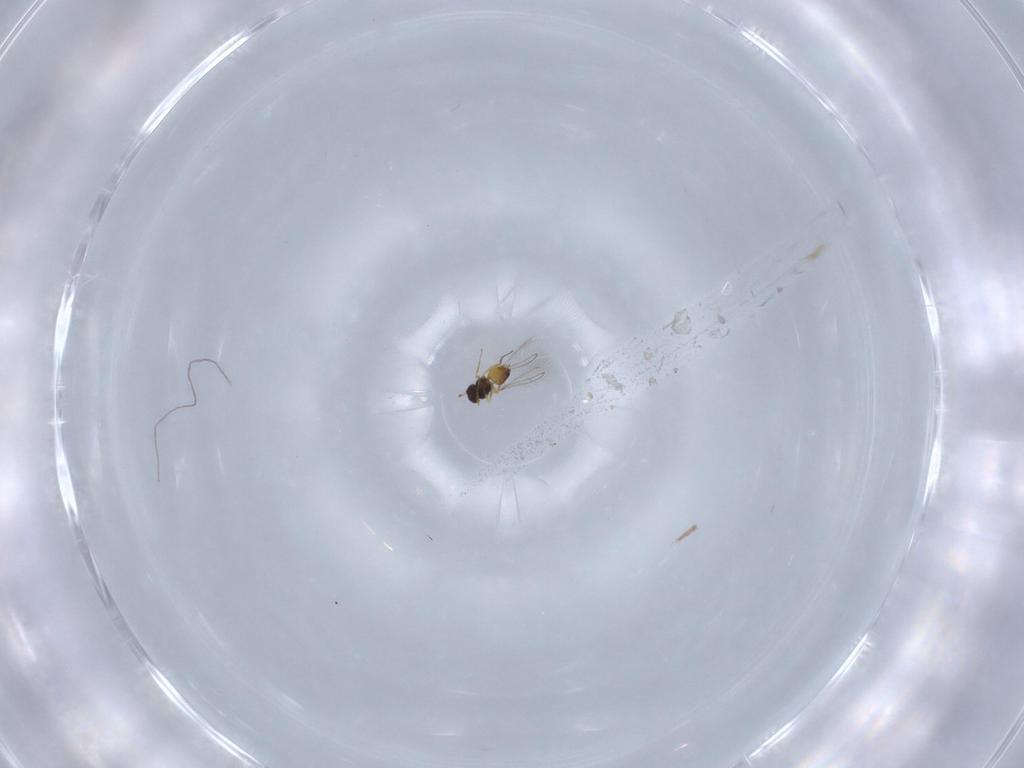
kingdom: Animalia
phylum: Arthropoda
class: Insecta
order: Hymenoptera
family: Mymaridae
